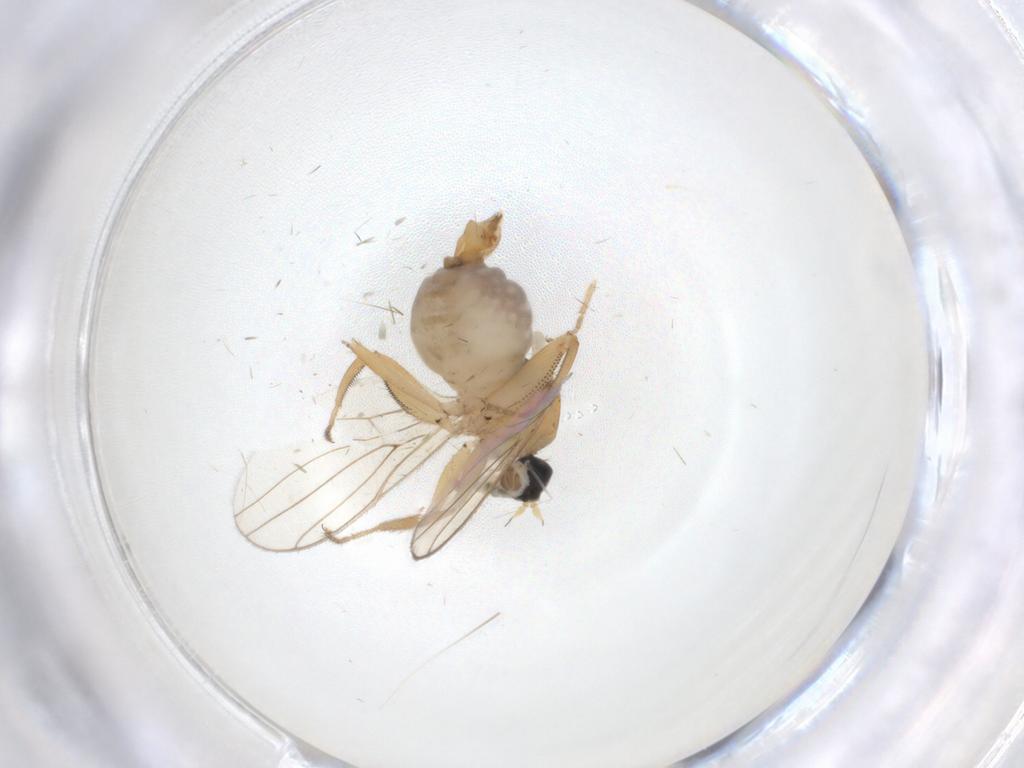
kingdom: Animalia
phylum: Arthropoda
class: Insecta
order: Diptera
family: Hybotidae
